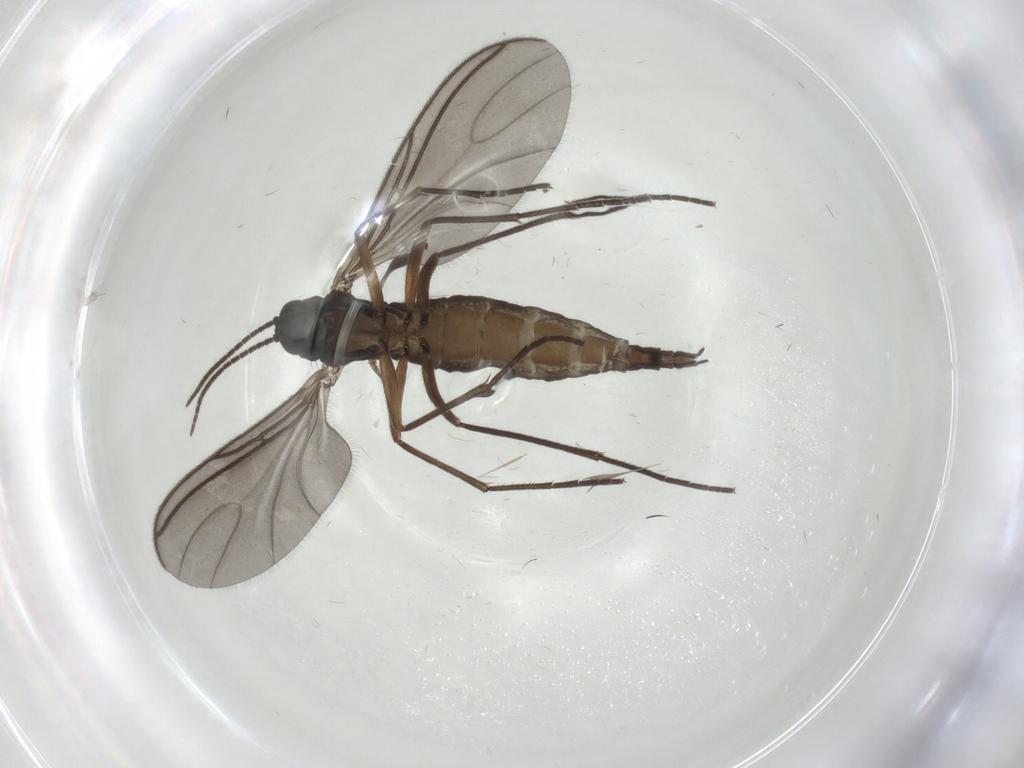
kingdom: Animalia
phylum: Arthropoda
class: Insecta
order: Diptera
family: Sciaridae
